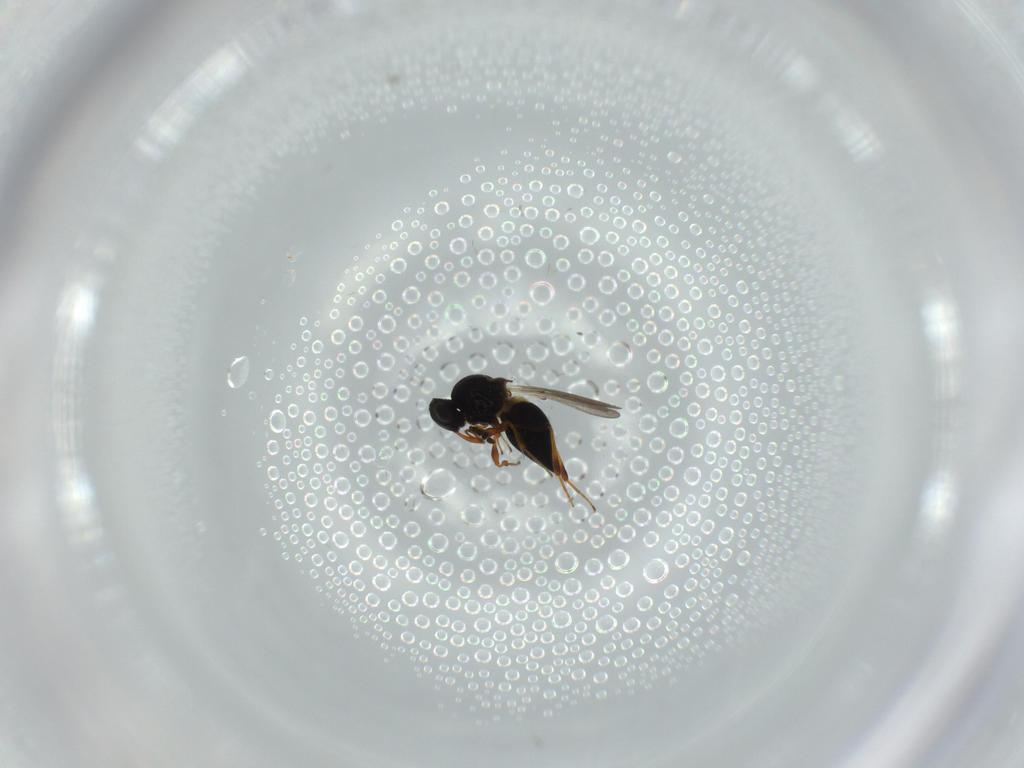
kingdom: Animalia
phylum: Arthropoda
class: Insecta
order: Hymenoptera
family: Platygastridae
